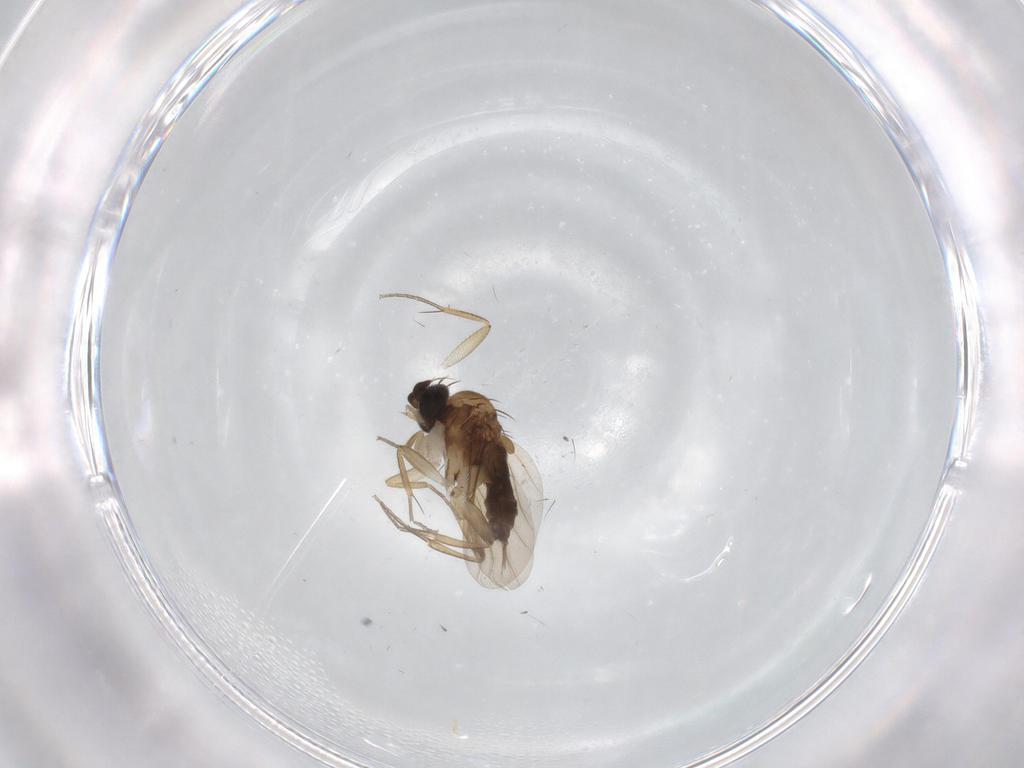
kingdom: Animalia
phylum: Arthropoda
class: Insecta
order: Diptera
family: Phoridae
